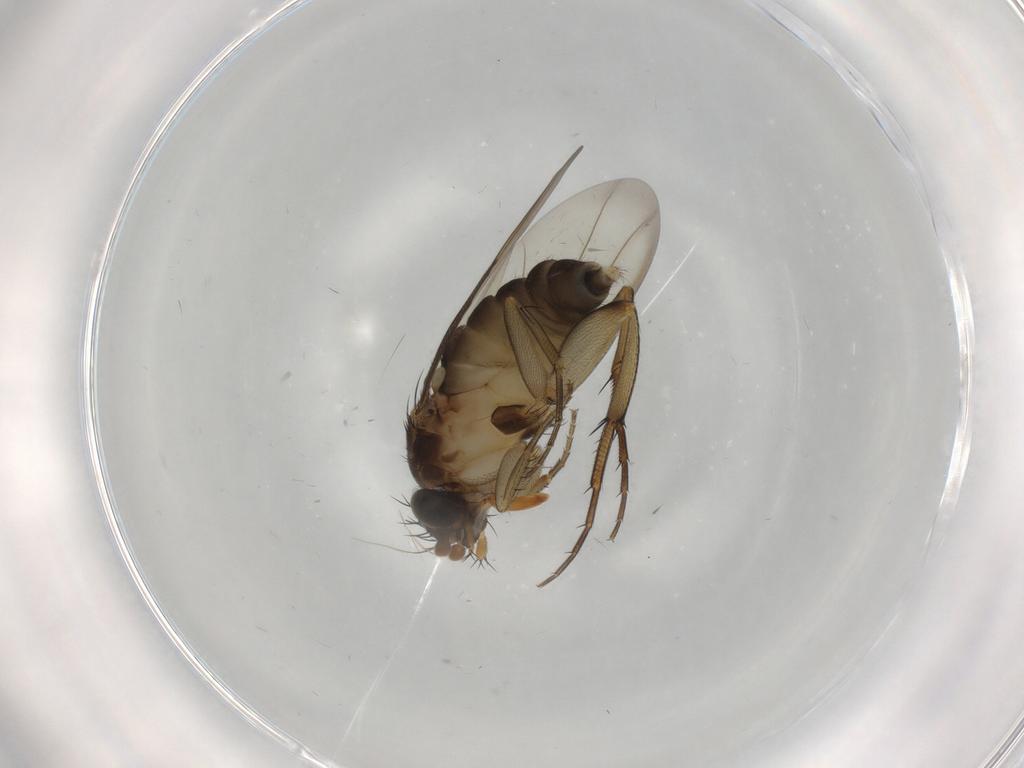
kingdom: Animalia
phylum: Arthropoda
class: Insecta
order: Diptera
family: Phoridae
